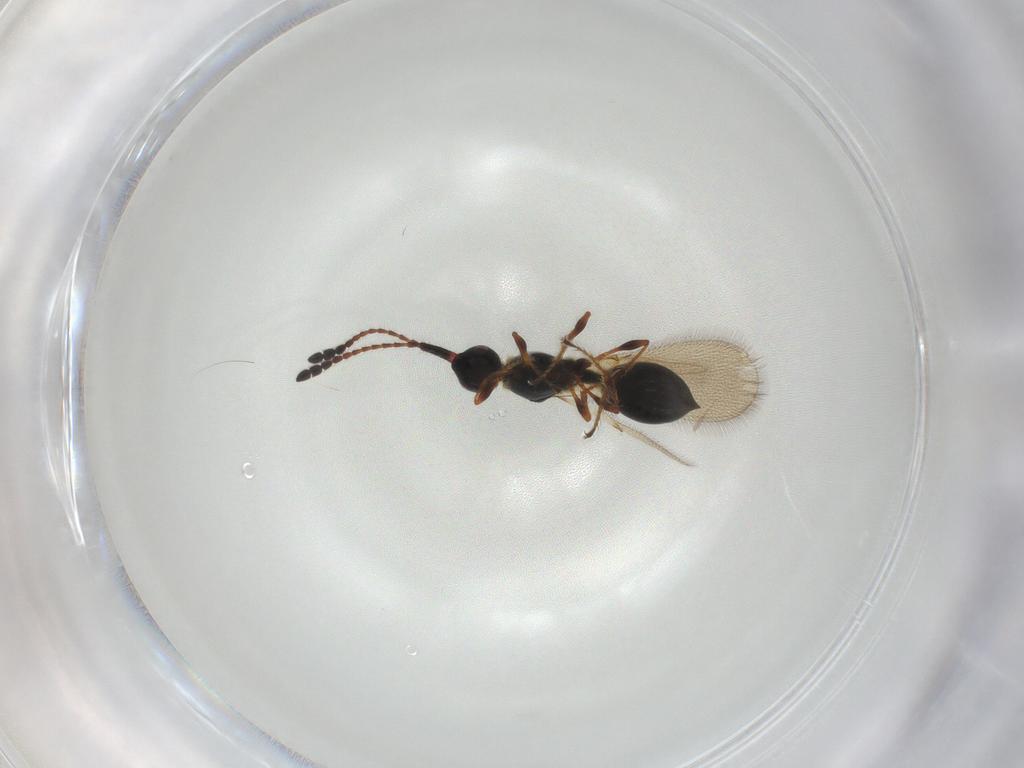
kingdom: Animalia
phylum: Arthropoda
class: Insecta
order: Hymenoptera
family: Diapriidae
